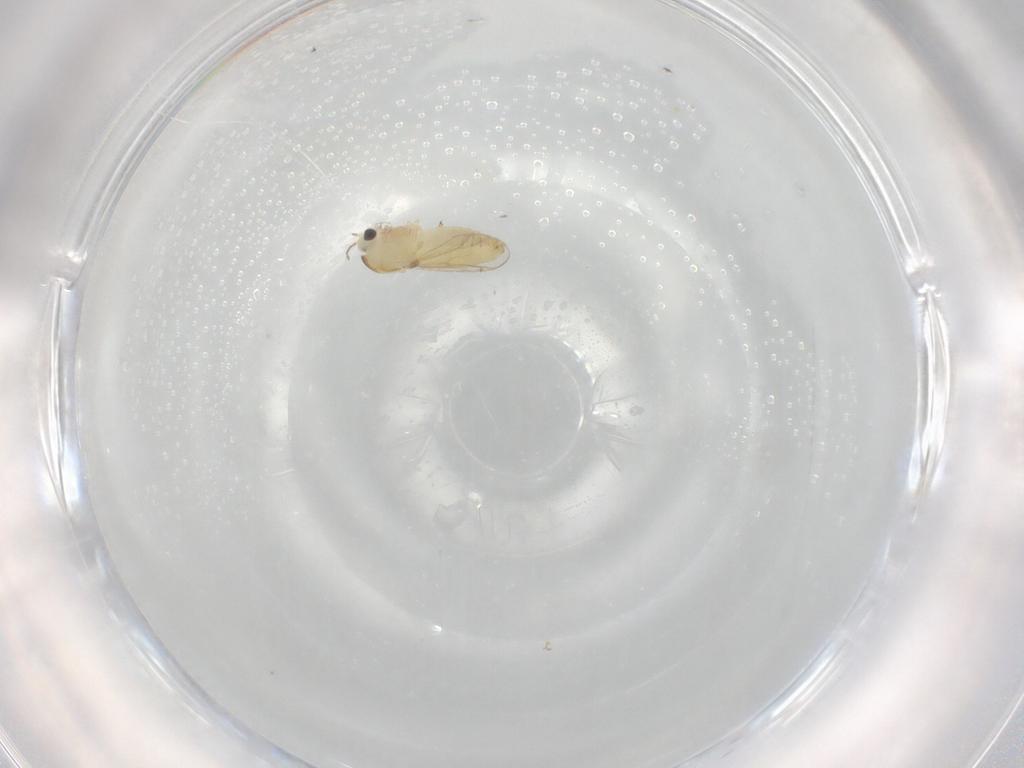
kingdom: Animalia
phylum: Arthropoda
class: Insecta
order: Diptera
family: Chironomidae
